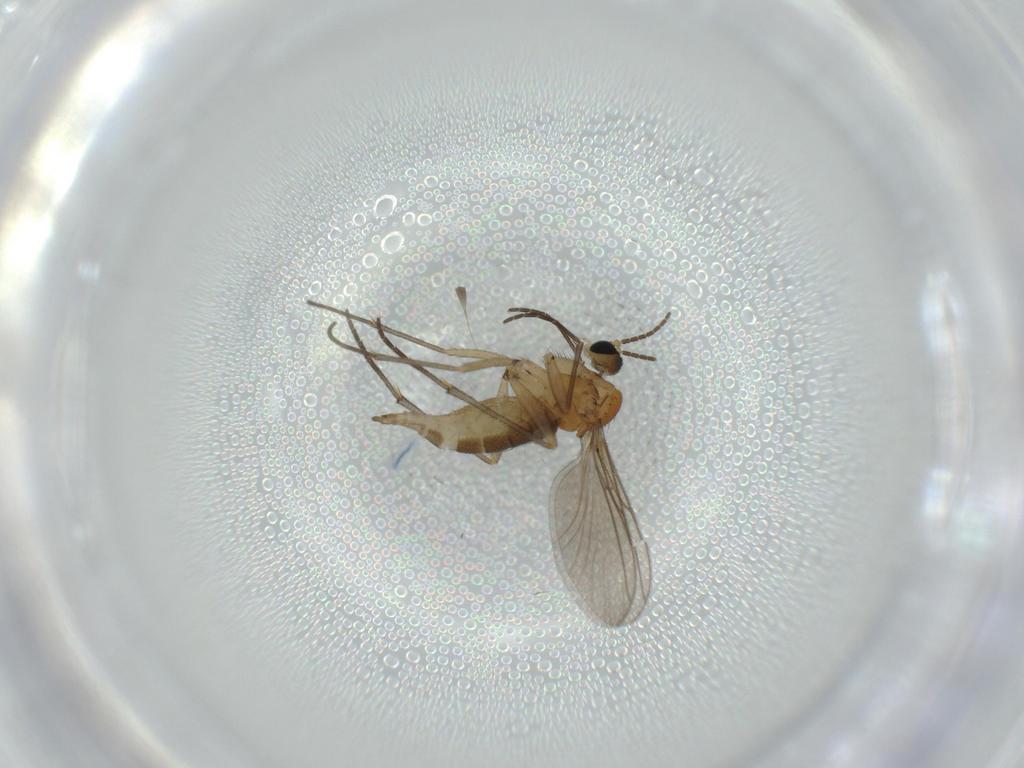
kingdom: Animalia
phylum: Arthropoda
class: Insecta
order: Diptera
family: Sciaridae
